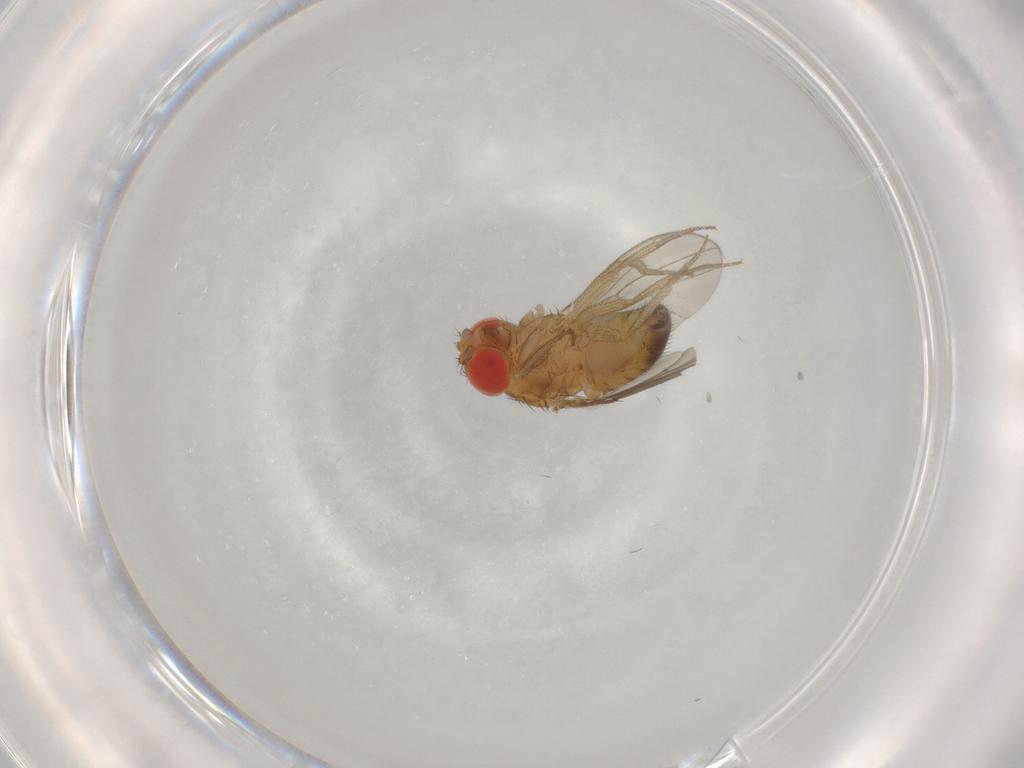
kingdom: Animalia
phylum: Arthropoda
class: Insecta
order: Diptera
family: Drosophilidae
